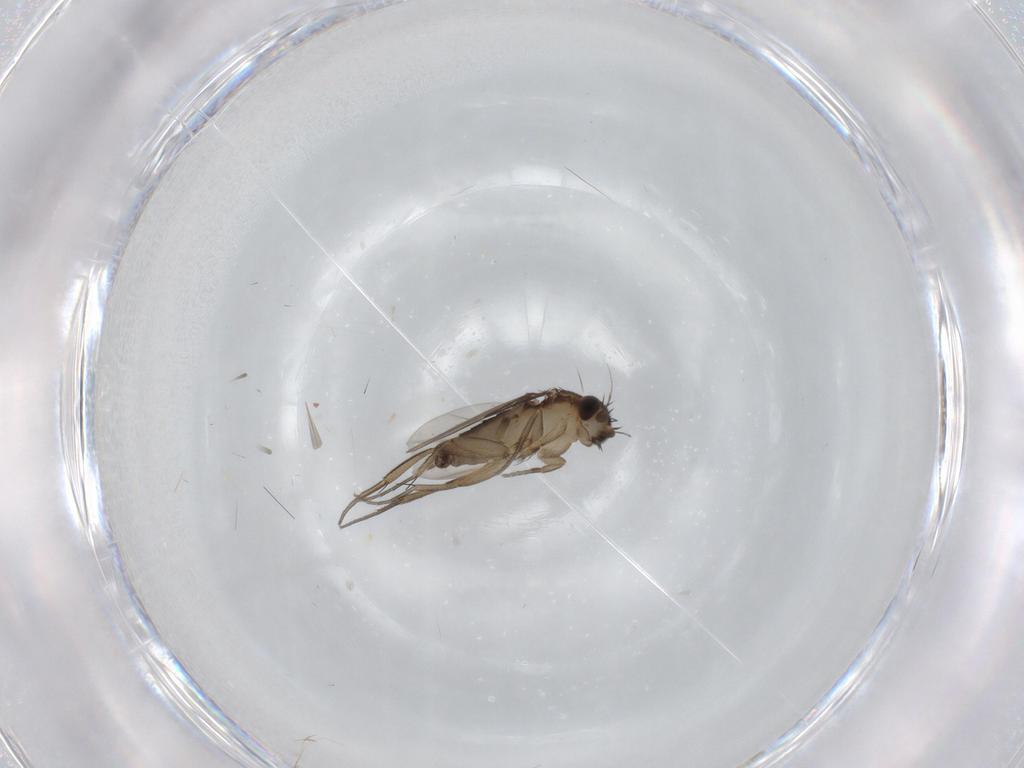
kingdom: Animalia
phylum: Arthropoda
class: Insecta
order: Diptera
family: Phoridae
